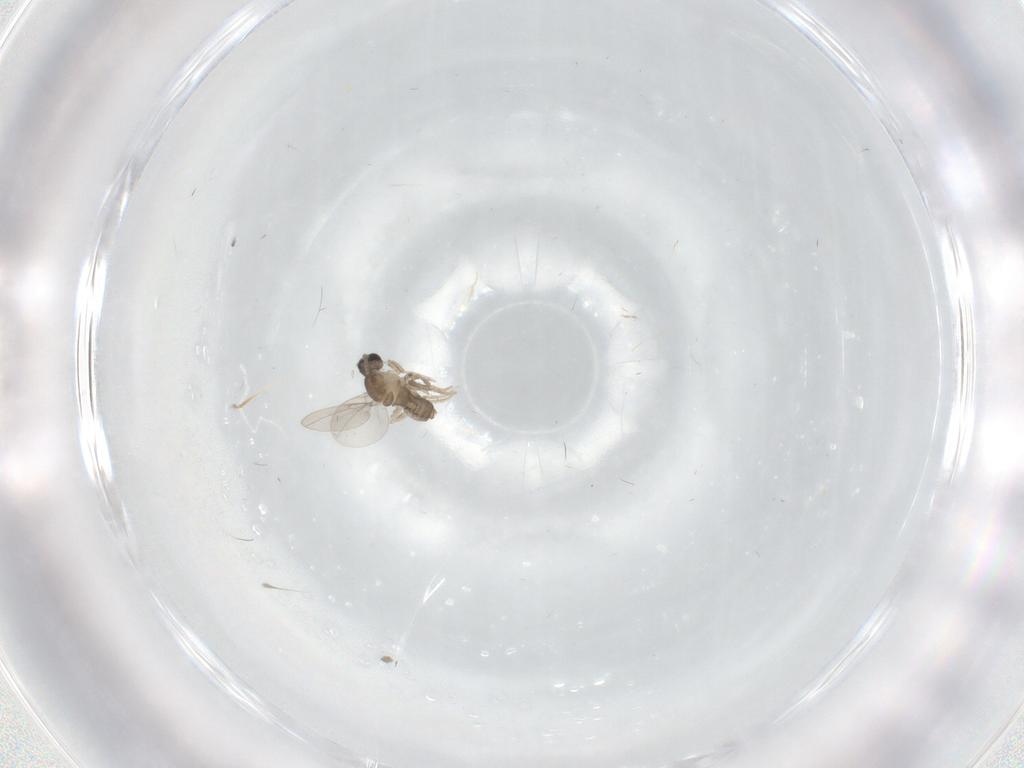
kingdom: Animalia
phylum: Arthropoda
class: Insecta
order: Diptera
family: Cecidomyiidae
